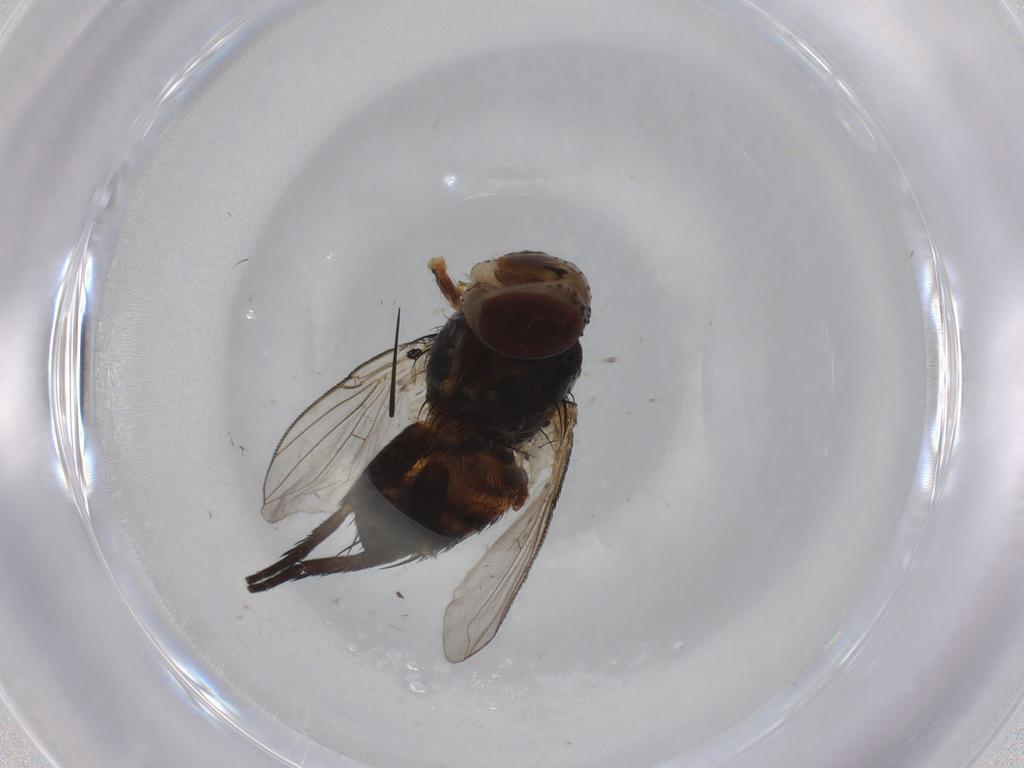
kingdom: Animalia
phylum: Arthropoda
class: Insecta
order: Diptera
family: Cecidomyiidae
